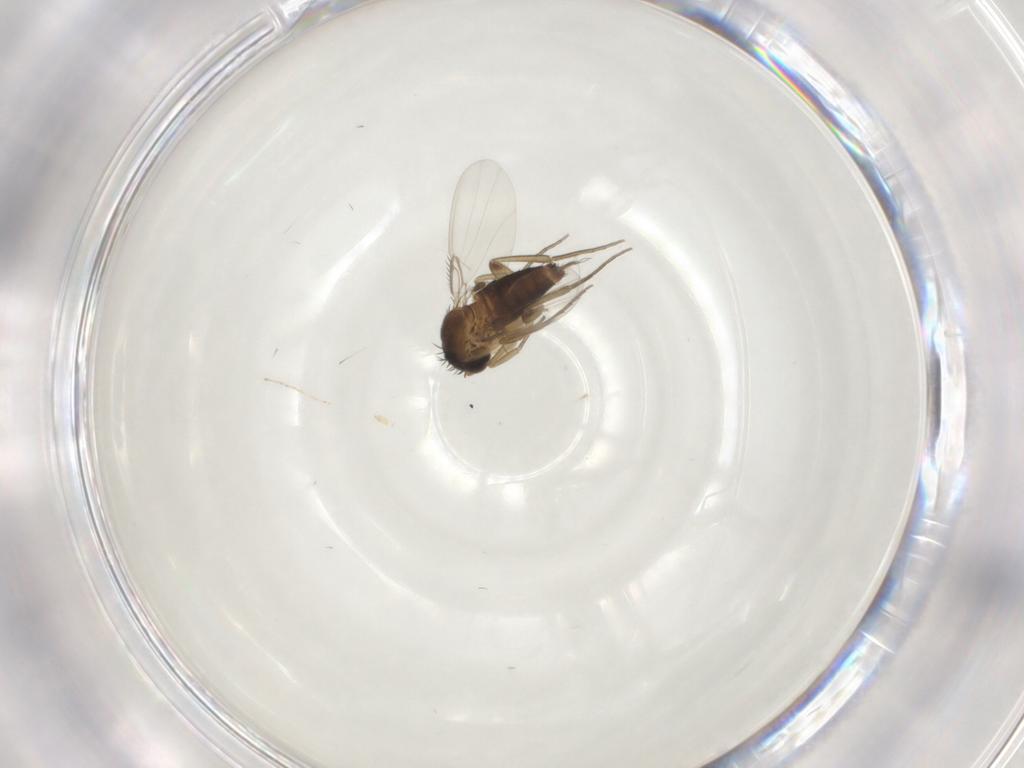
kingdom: Animalia
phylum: Arthropoda
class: Insecta
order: Diptera
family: Phoridae
